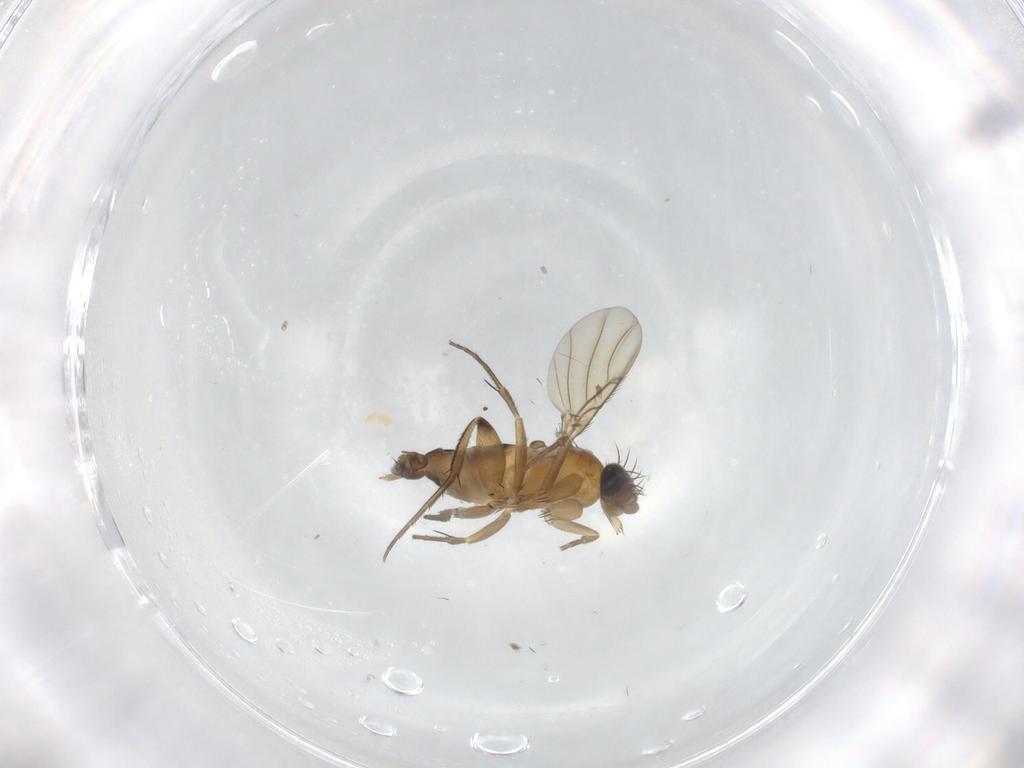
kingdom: Animalia
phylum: Arthropoda
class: Insecta
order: Diptera
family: Chironomidae
